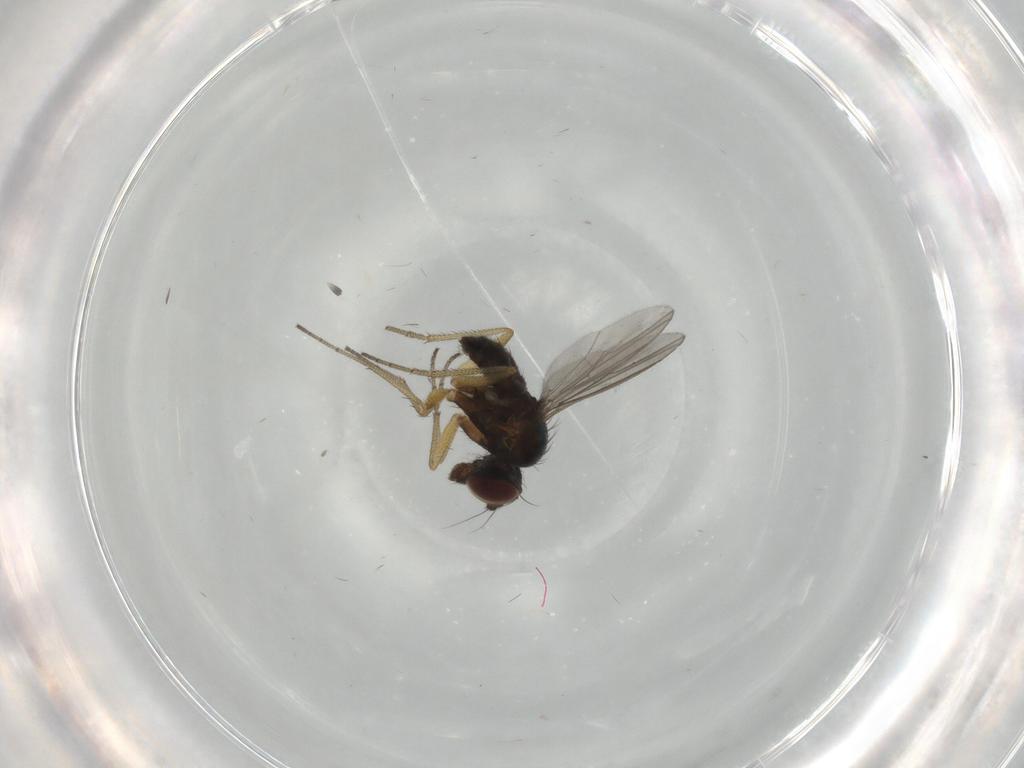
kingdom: Animalia
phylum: Arthropoda
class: Insecta
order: Diptera
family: Dolichopodidae
